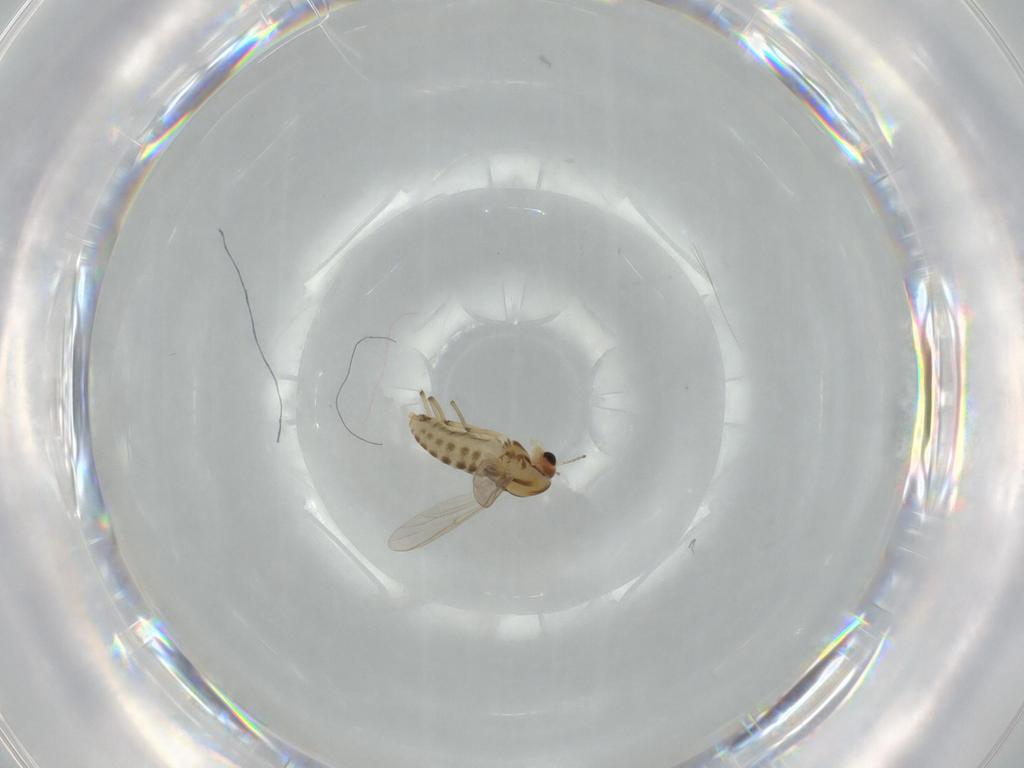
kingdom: Animalia
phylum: Arthropoda
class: Insecta
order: Diptera
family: Chironomidae
